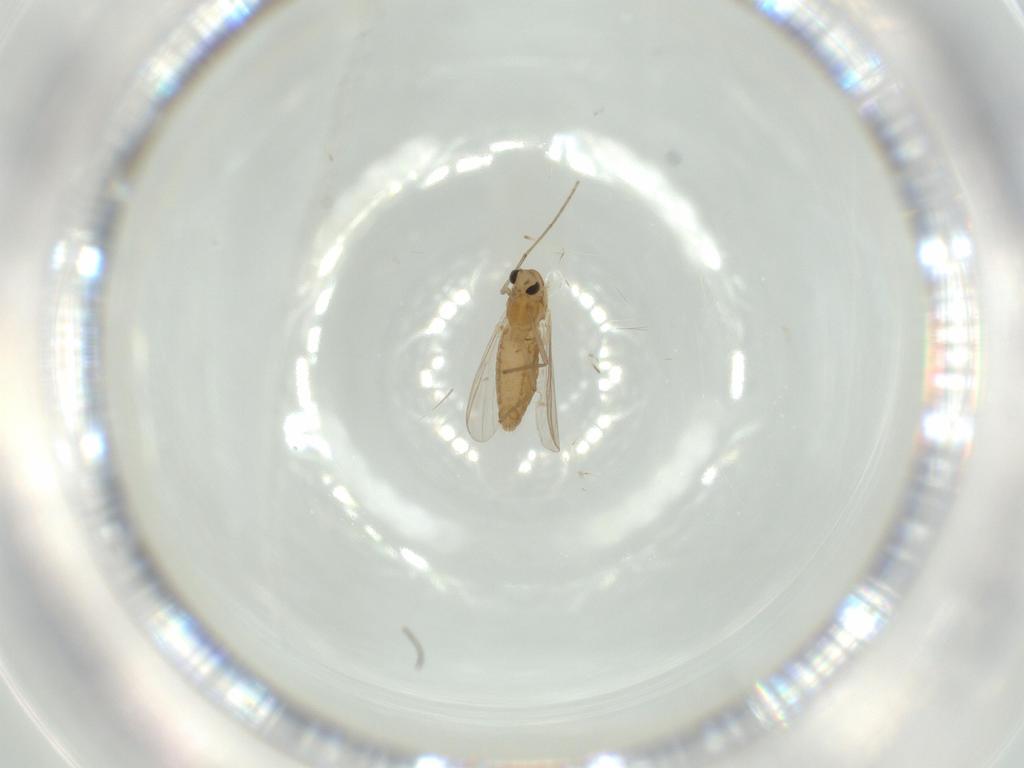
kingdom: Animalia
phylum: Arthropoda
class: Insecta
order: Diptera
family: Chironomidae
